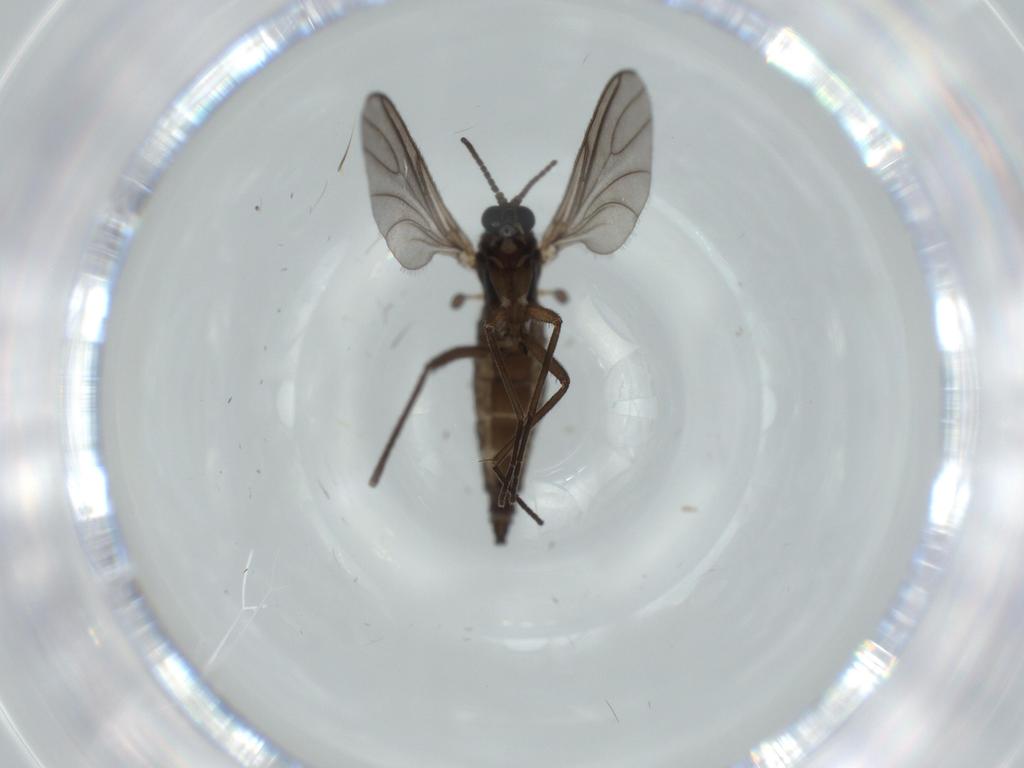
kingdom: Animalia
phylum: Arthropoda
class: Insecta
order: Diptera
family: Sciaridae
